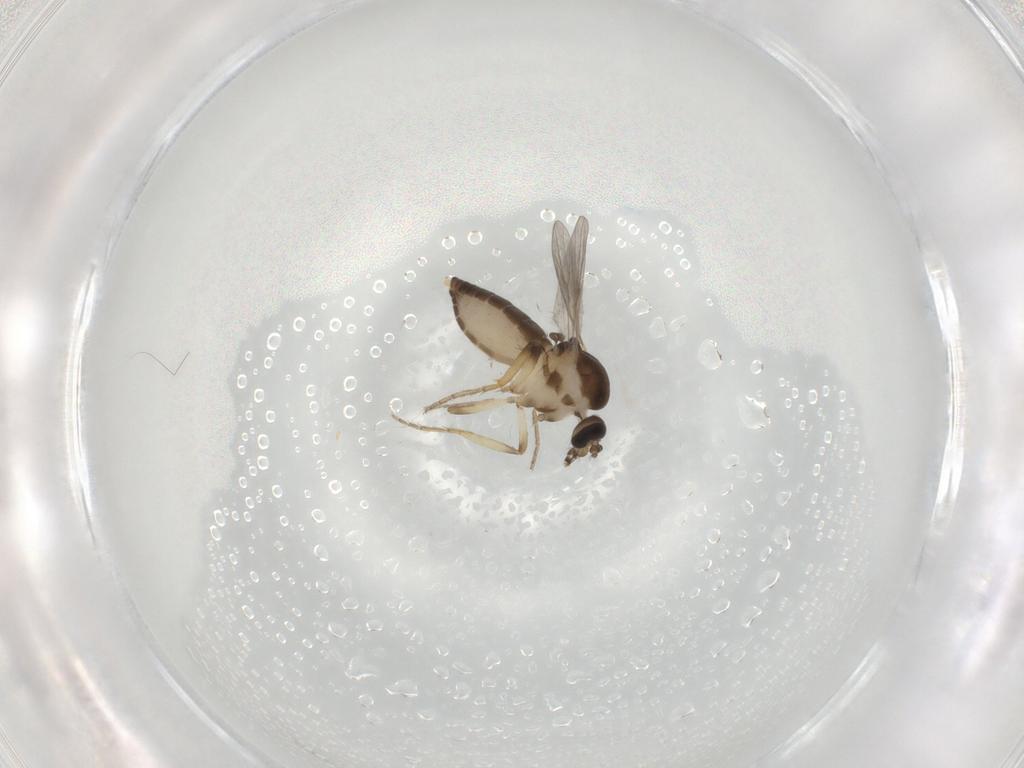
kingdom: Animalia
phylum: Arthropoda
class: Insecta
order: Diptera
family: Ceratopogonidae
